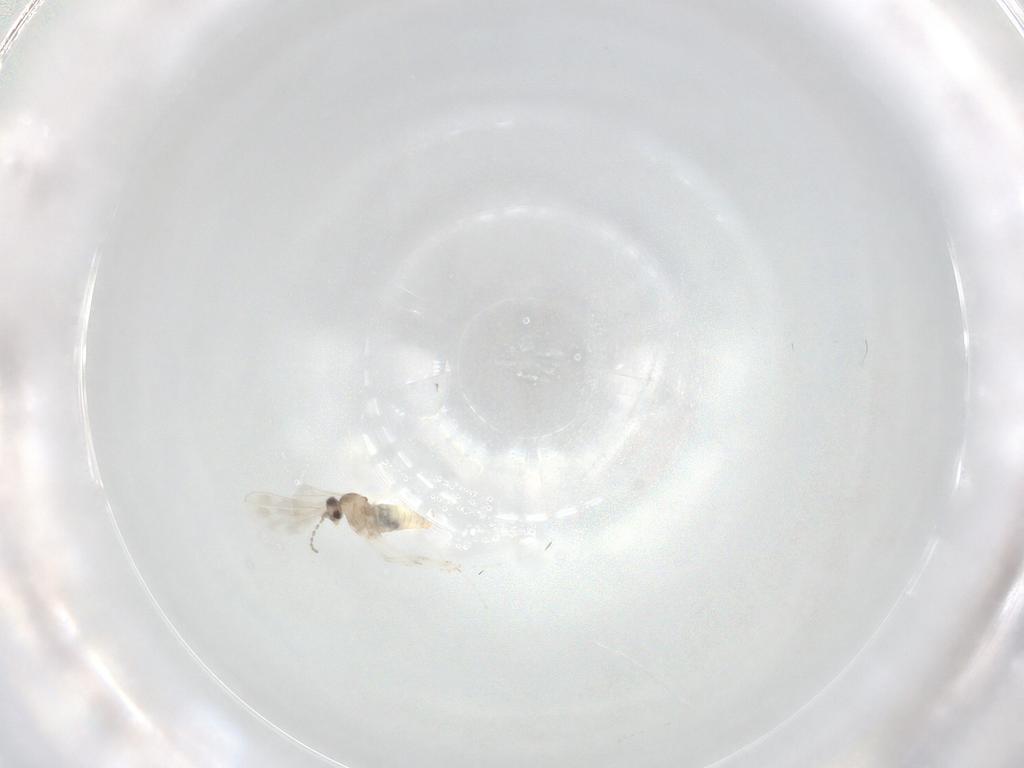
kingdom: Animalia
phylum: Arthropoda
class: Insecta
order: Diptera
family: Cecidomyiidae
